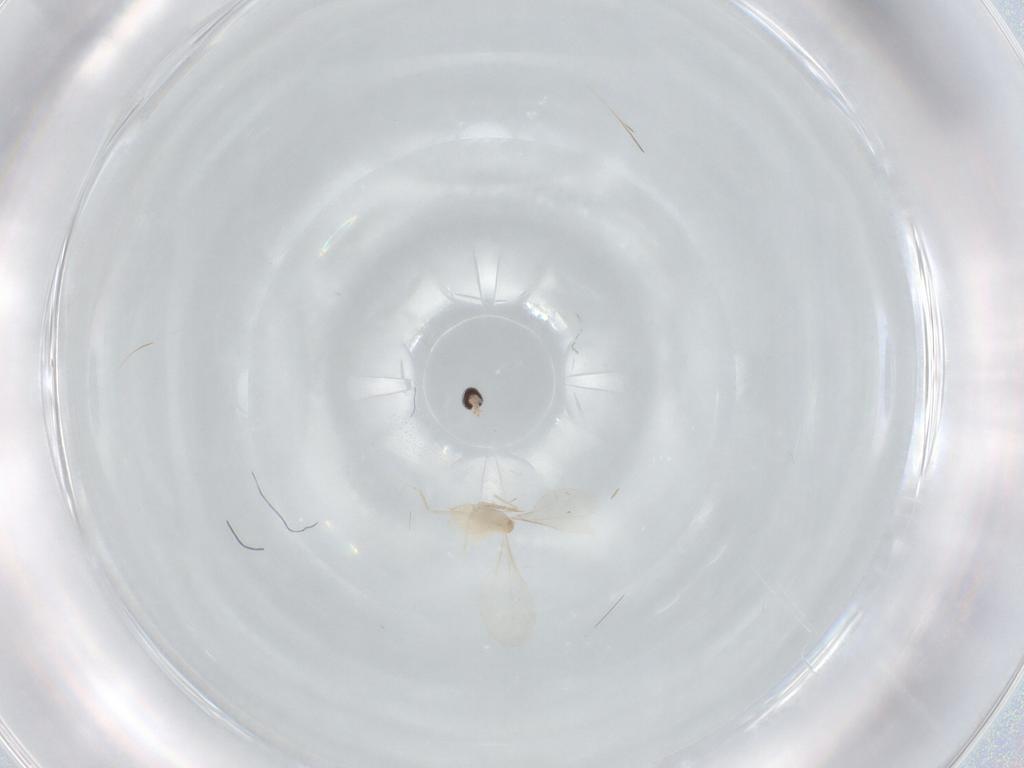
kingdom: Animalia
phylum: Arthropoda
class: Insecta
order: Diptera
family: Cecidomyiidae
